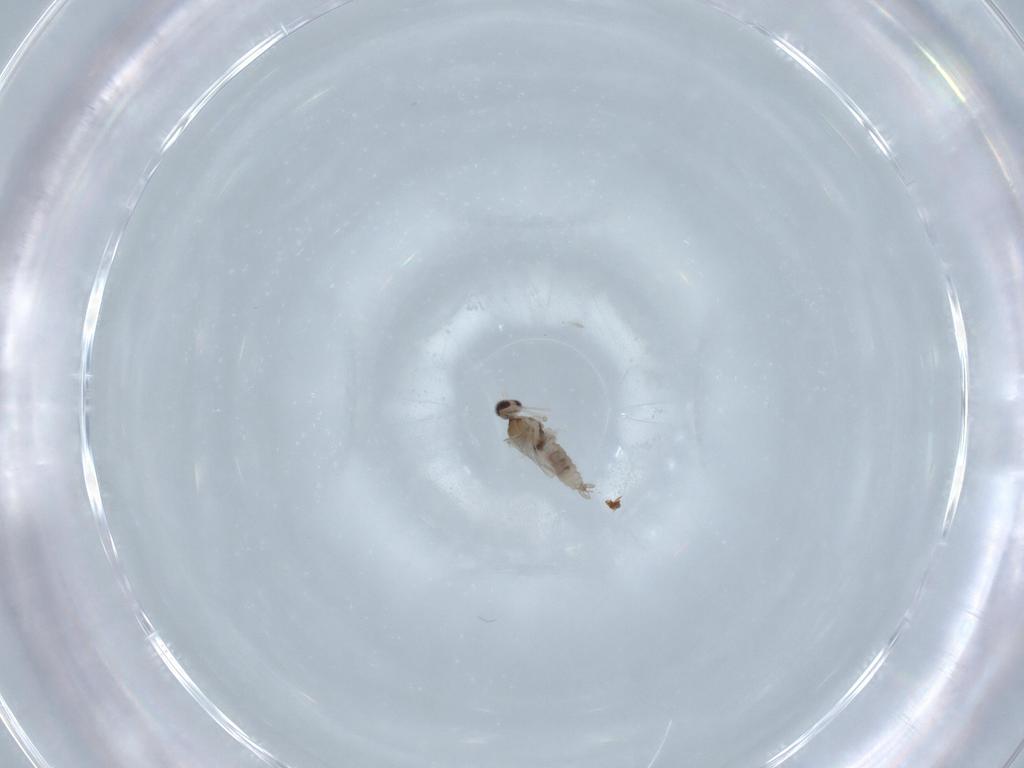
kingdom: Animalia
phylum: Arthropoda
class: Insecta
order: Diptera
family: Cecidomyiidae
